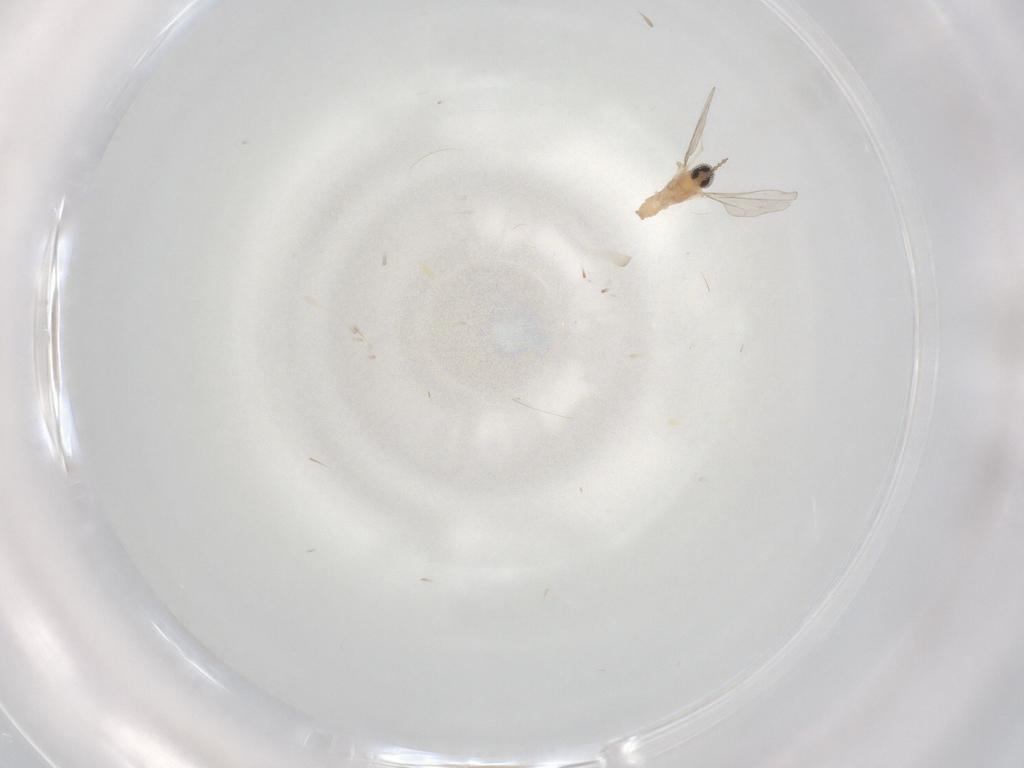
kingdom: Animalia
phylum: Arthropoda
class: Insecta
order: Diptera
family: Cecidomyiidae
